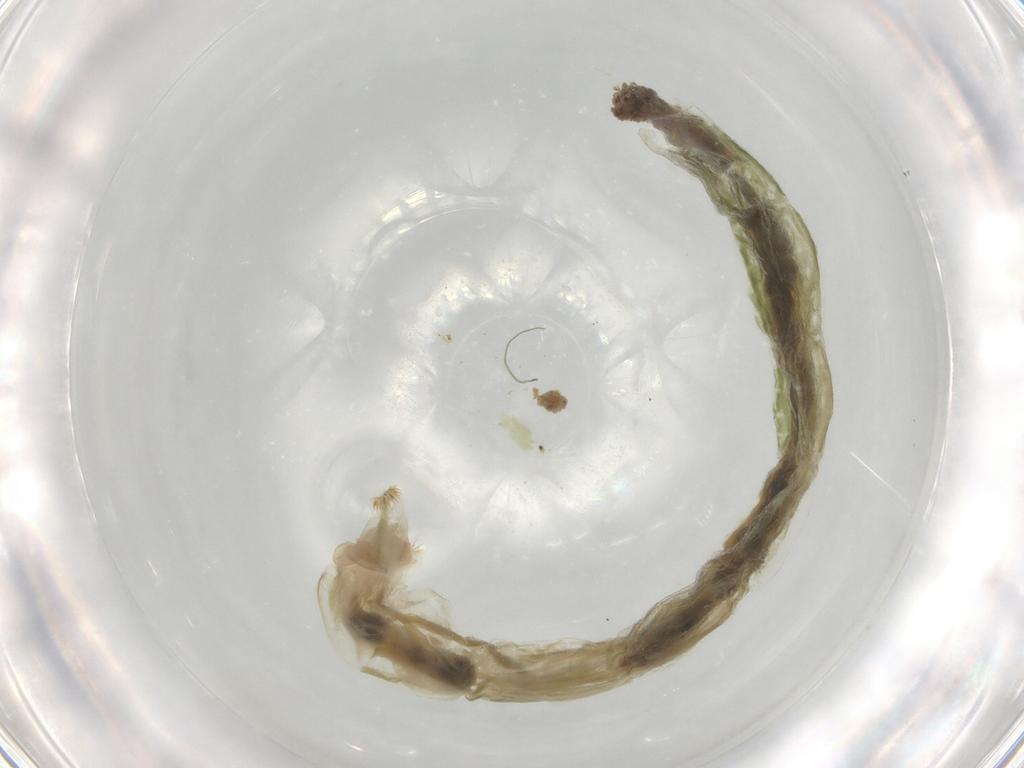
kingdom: Animalia
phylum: Arthropoda
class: Insecta
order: Diptera
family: Chironomidae
